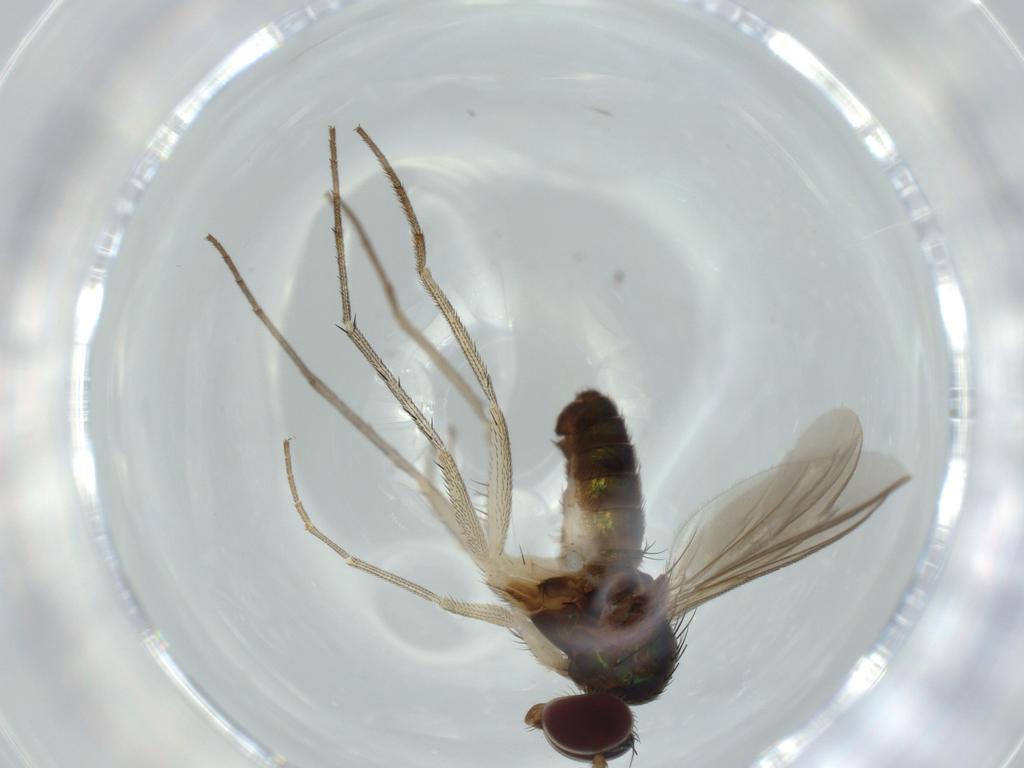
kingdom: Animalia
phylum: Arthropoda
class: Insecta
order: Diptera
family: Dolichopodidae
